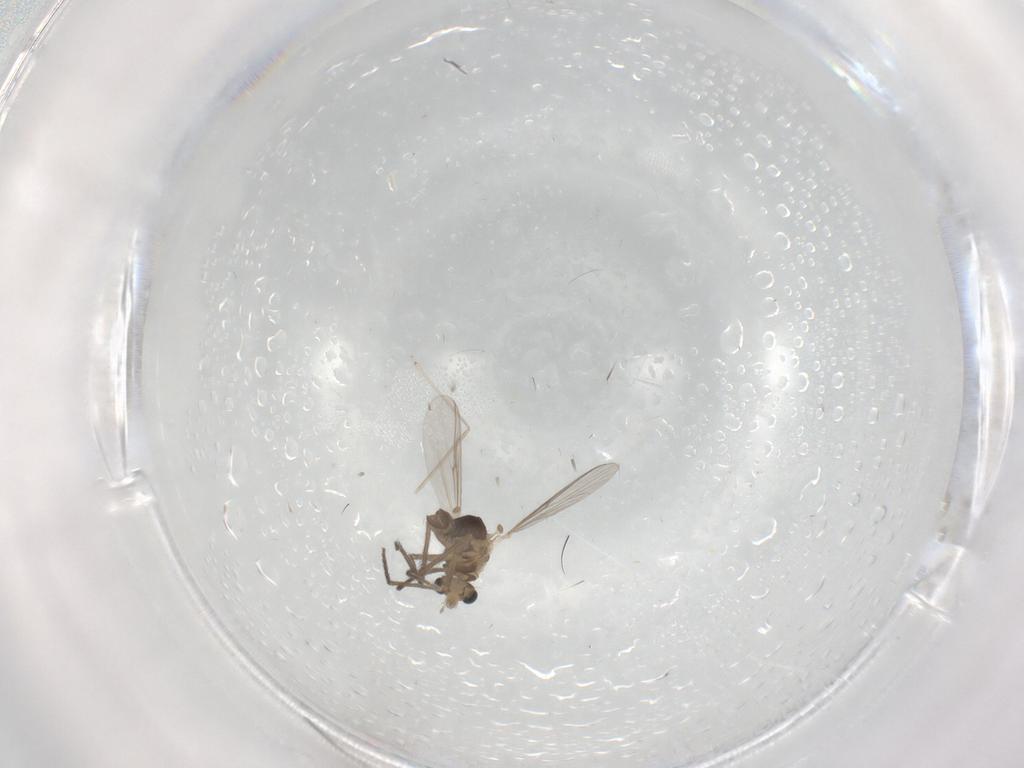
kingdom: Animalia
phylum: Arthropoda
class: Insecta
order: Diptera
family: Chironomidae
